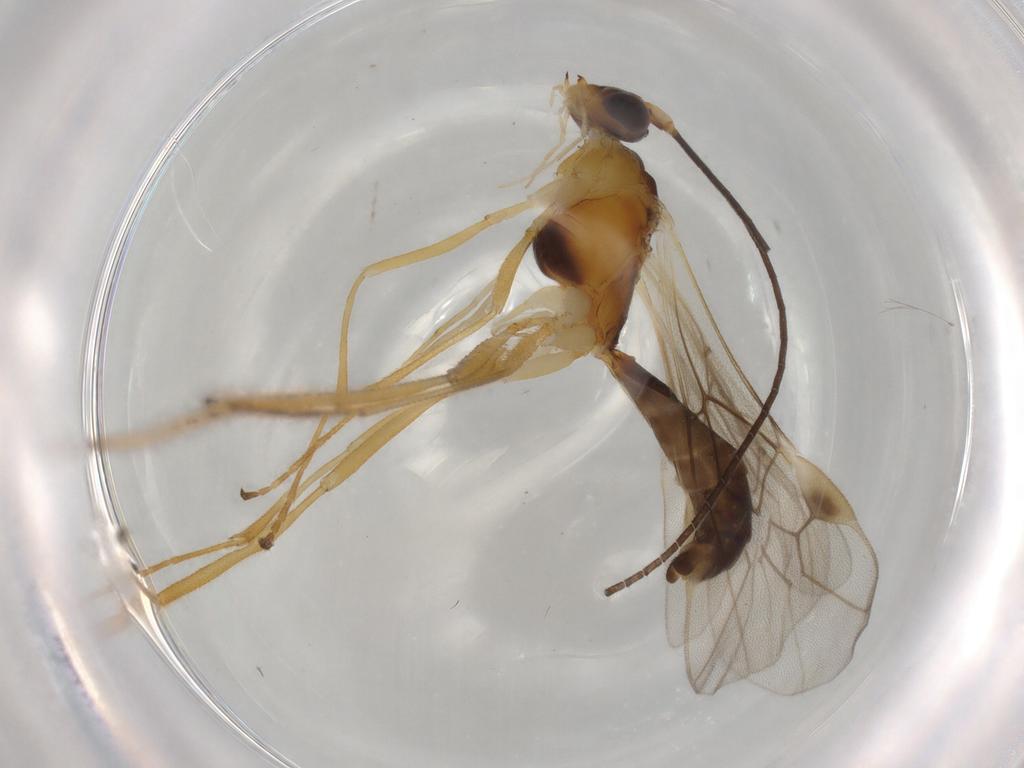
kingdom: Animalia
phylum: Arthropoda
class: Insecta
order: Hymenoptera
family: Braconidae
